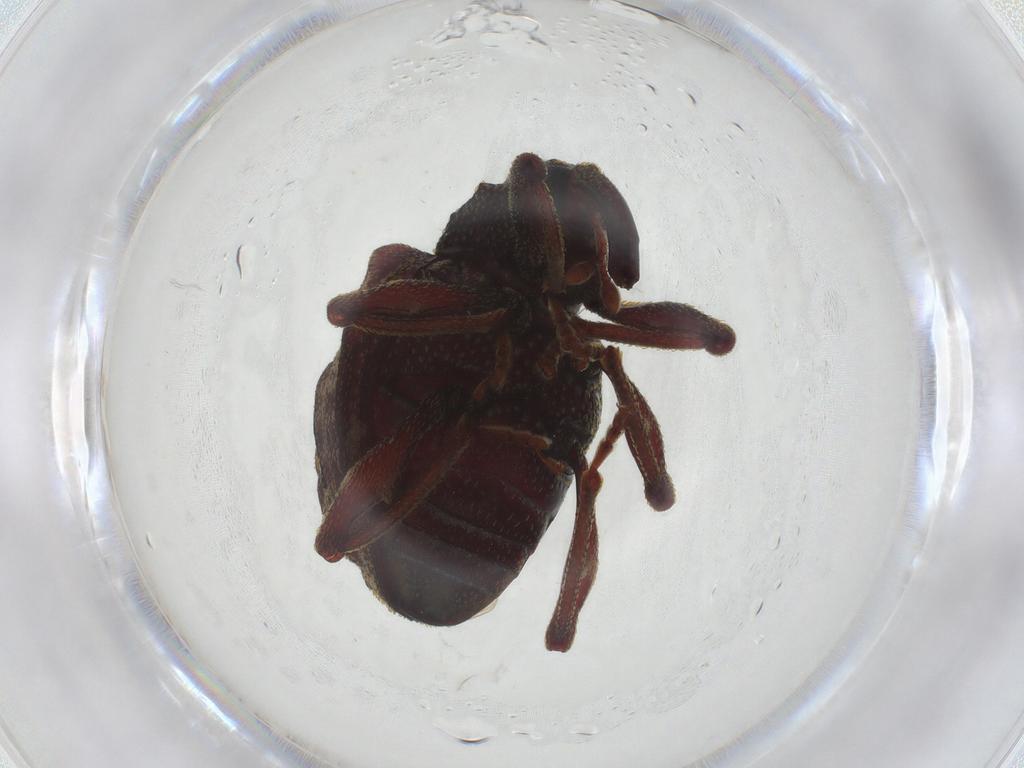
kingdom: Animalia
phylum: Arthropoda
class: Insecta
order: Coleoptera
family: Curculionidae
